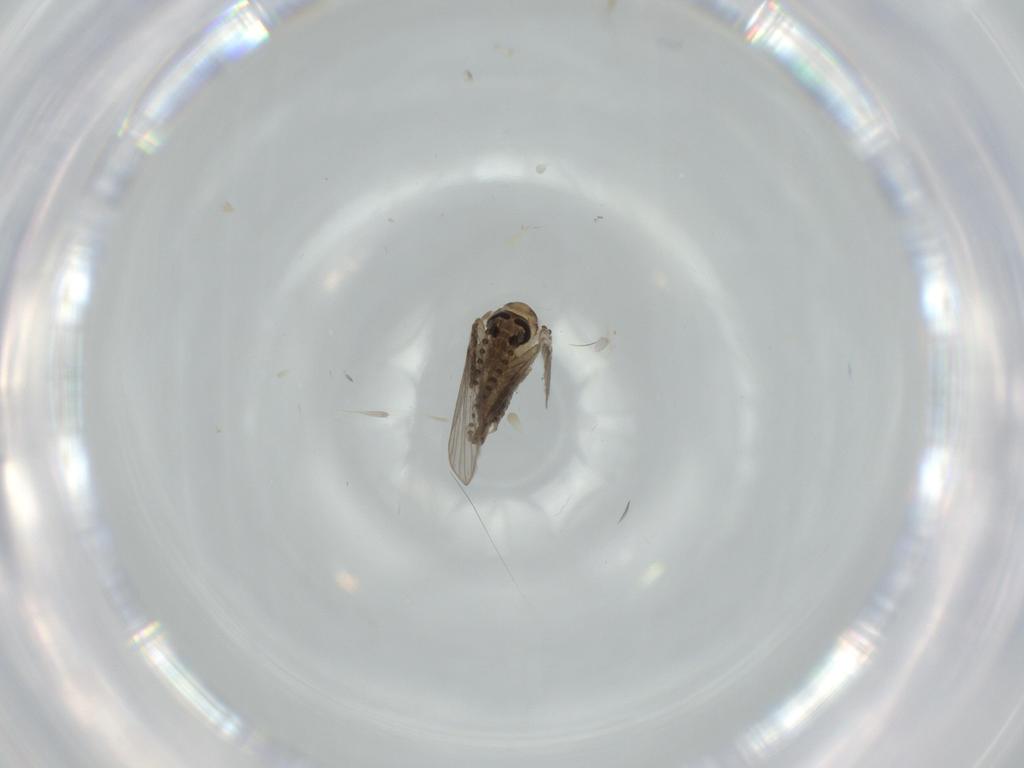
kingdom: Animalia
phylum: Arthropoda
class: Insecta
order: Diptera
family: Psychodidae
